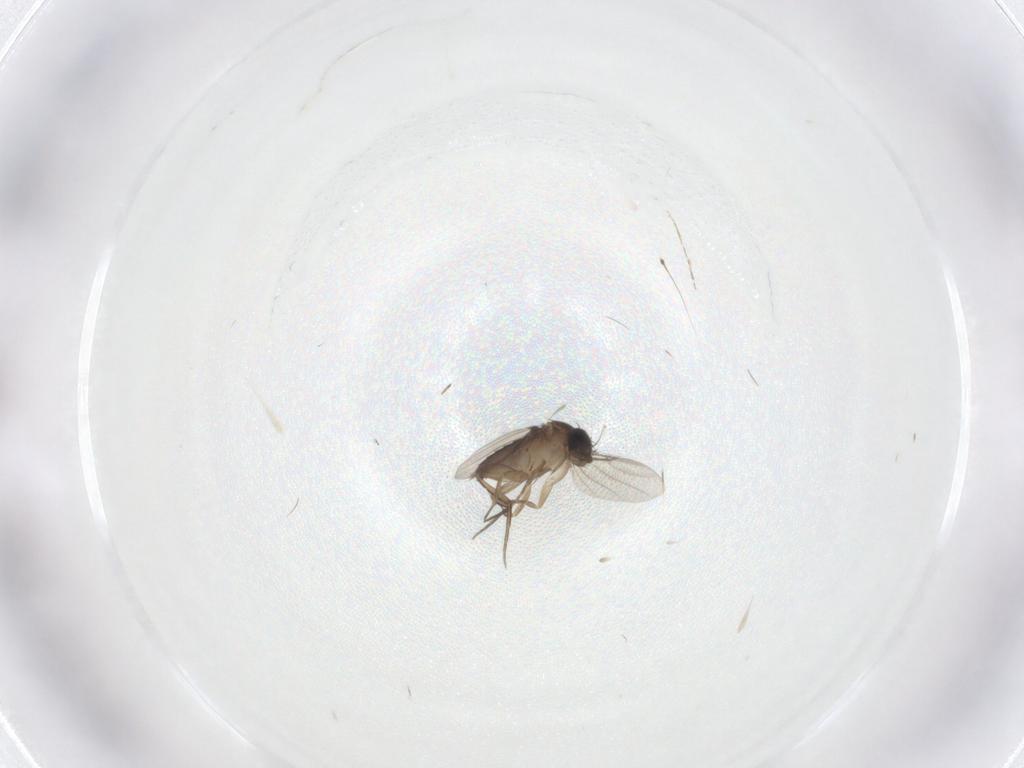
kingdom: Animalia
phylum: Arthropoda
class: Insecta
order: Diptera
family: Phoridae
